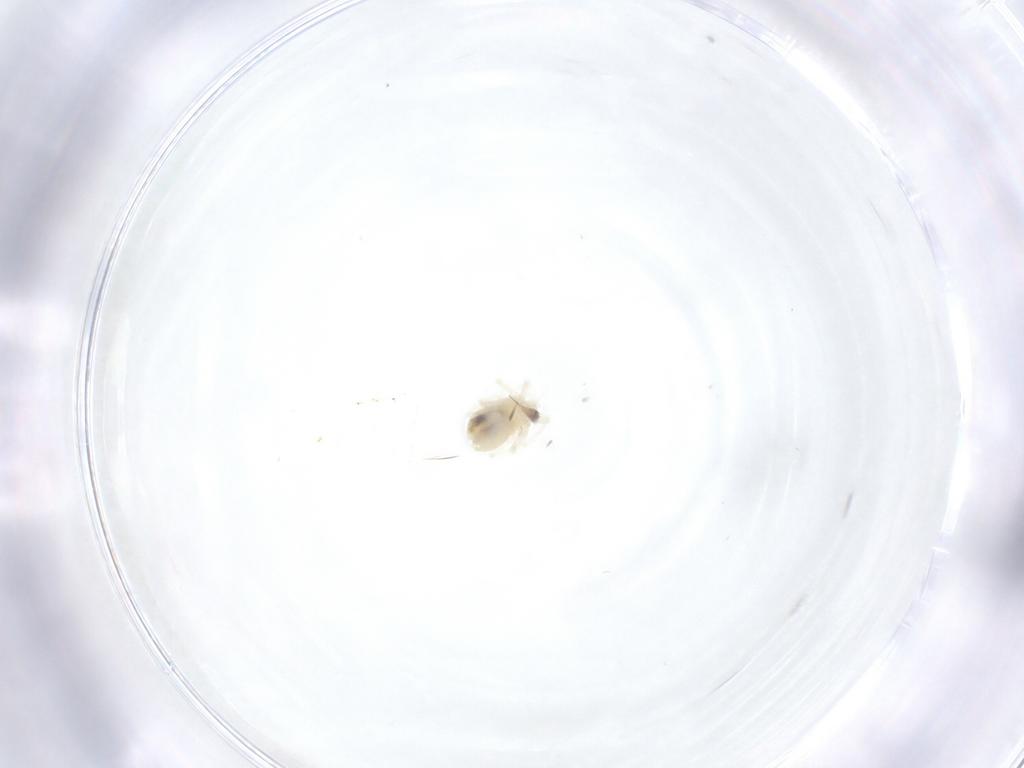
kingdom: Animalia
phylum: Arthropoda
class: Arachnida
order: Trombidiformes
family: Anystidae
